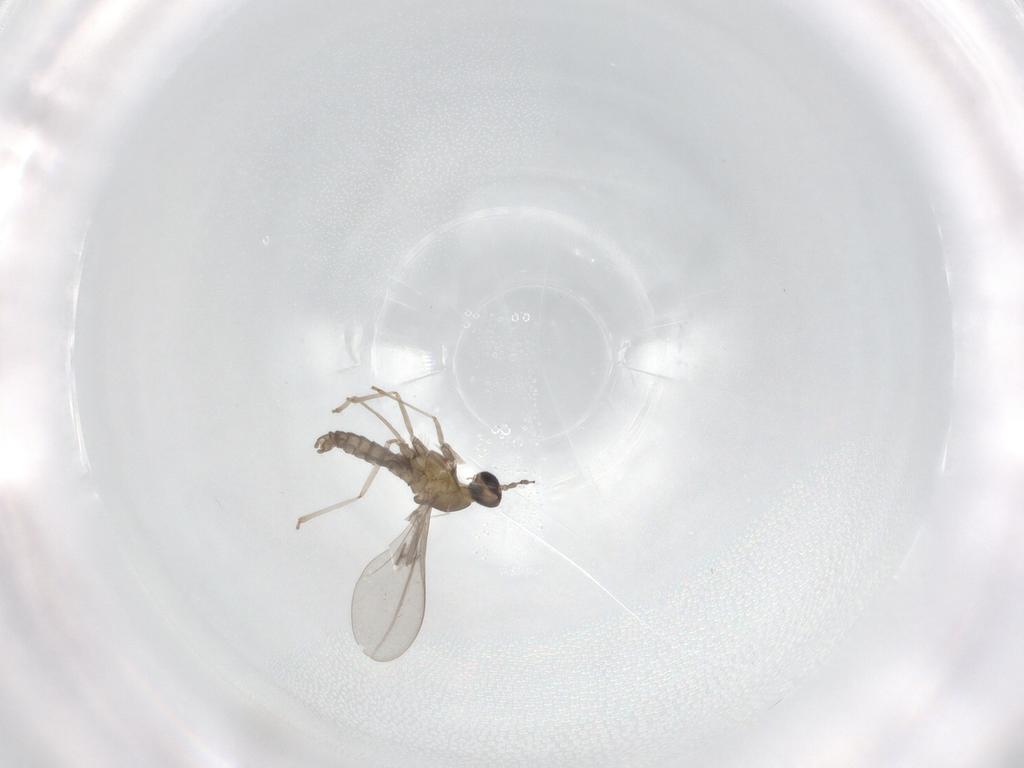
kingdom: Animalia
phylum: Arthropoda
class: Insecta
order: Diptera
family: Cecidomyiidae
